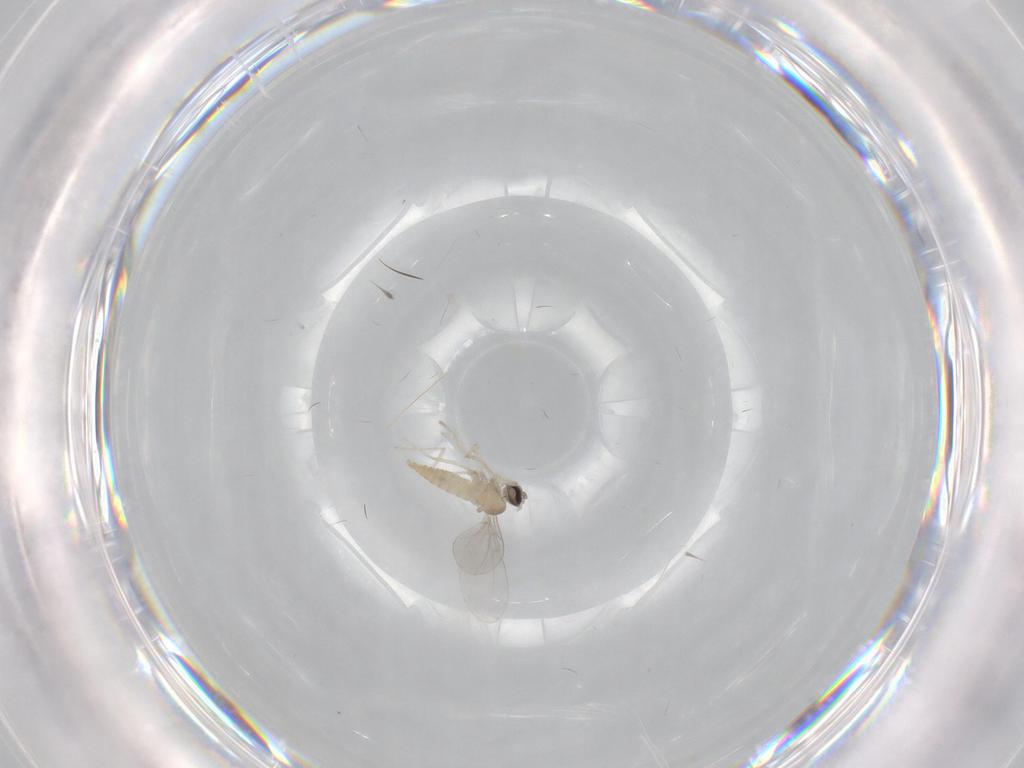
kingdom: Animalia
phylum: Arthropoda
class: Insecta
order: Diptera
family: Cecidomyiidae
